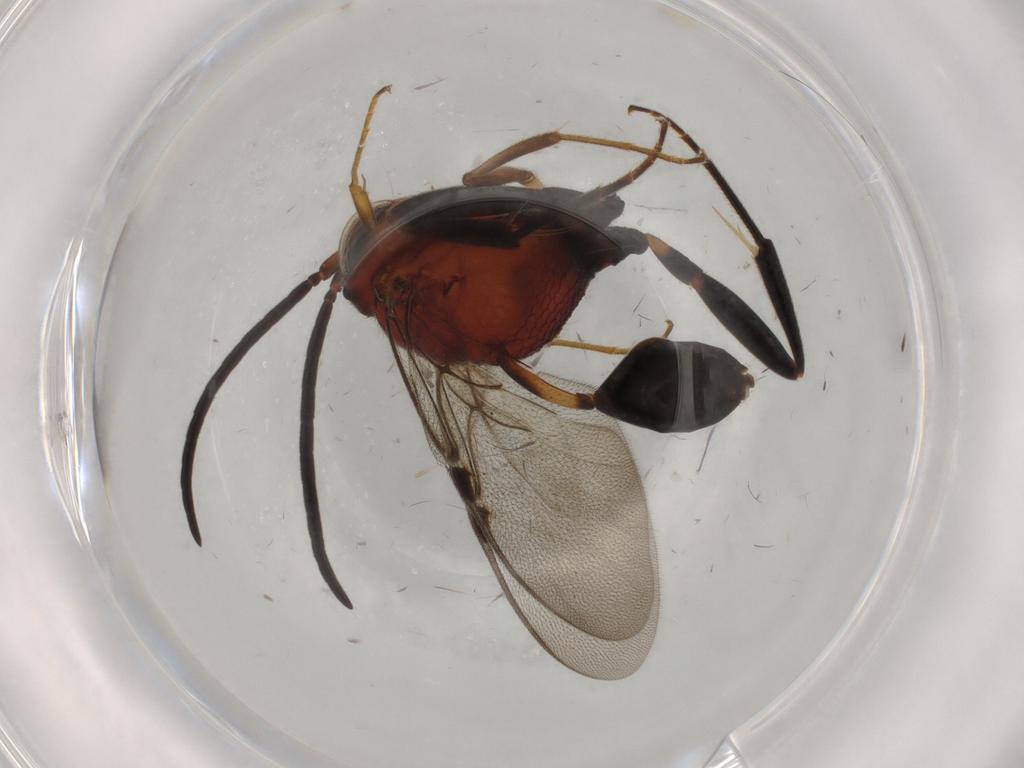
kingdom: Animalia
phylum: Arthropoda
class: Insecta
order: Hymenoptera
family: Evaniidae
